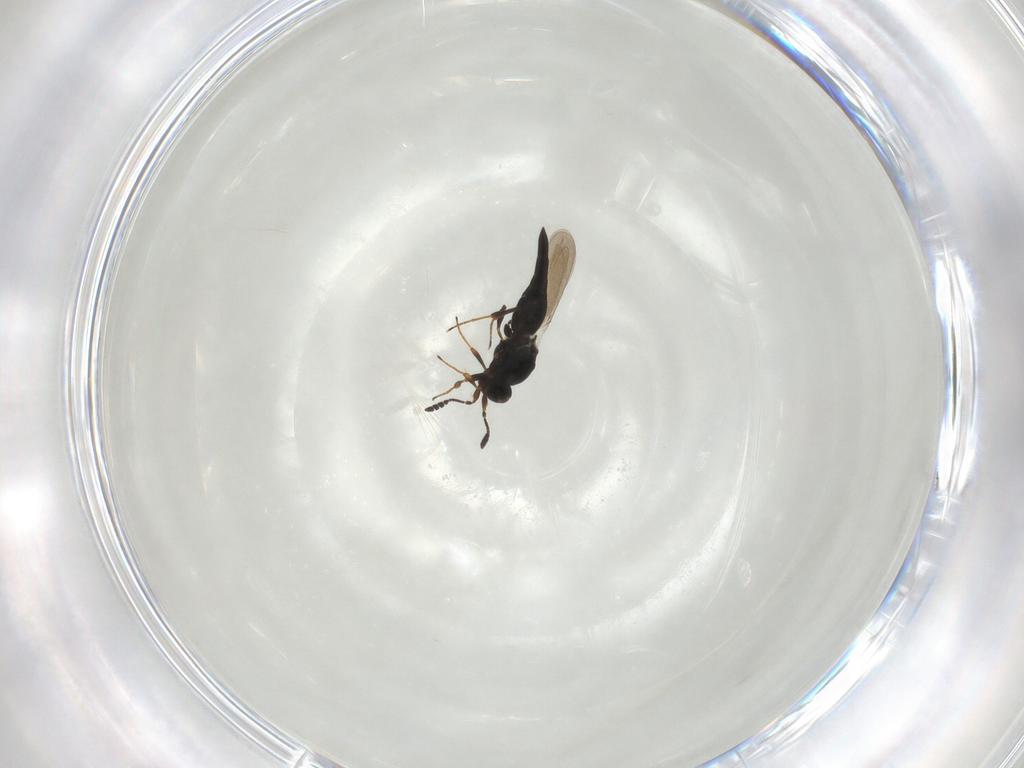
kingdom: Animalia
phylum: Arthropoda
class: Insecta
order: Hymenoptera
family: Platygastridae
